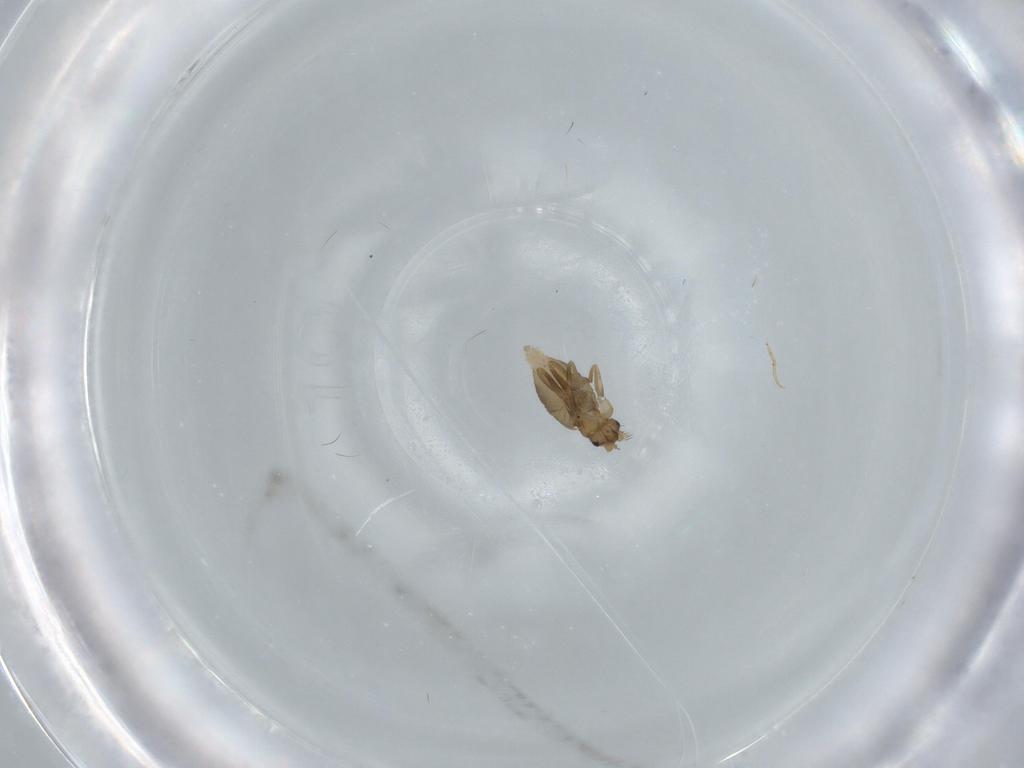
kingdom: Animalia
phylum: Arthropoda
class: Insecta
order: Diptera
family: Phoridae
